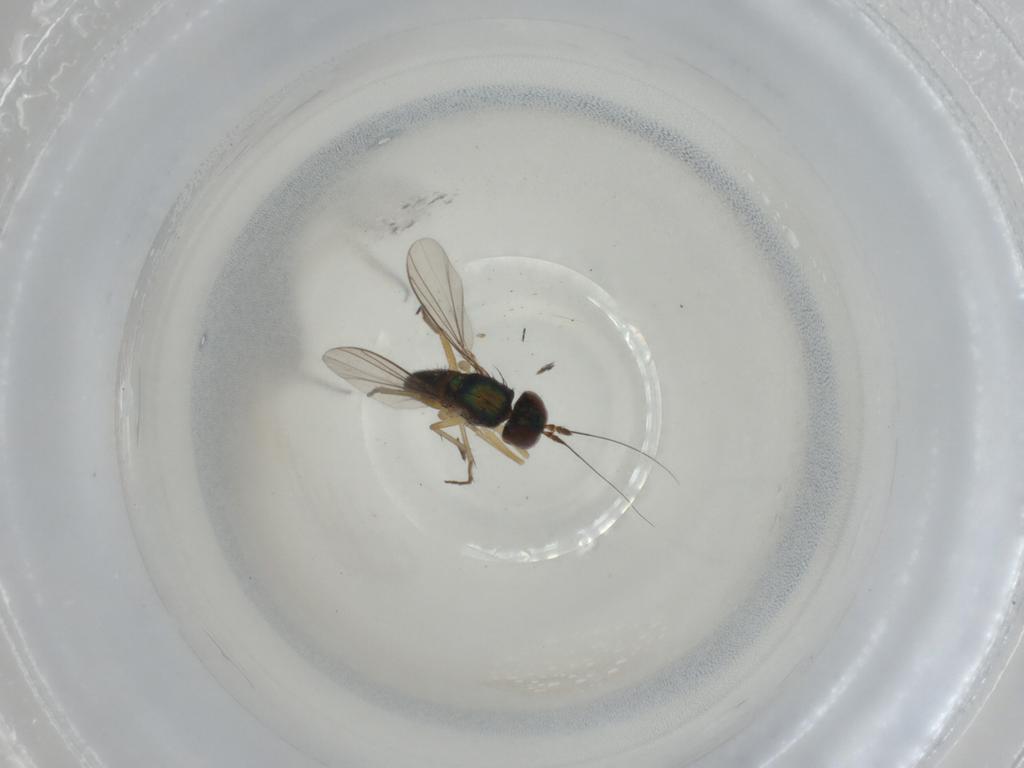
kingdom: Animalia
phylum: Arthropoda
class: Insecta
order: Diptera
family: Dolichopodidae
